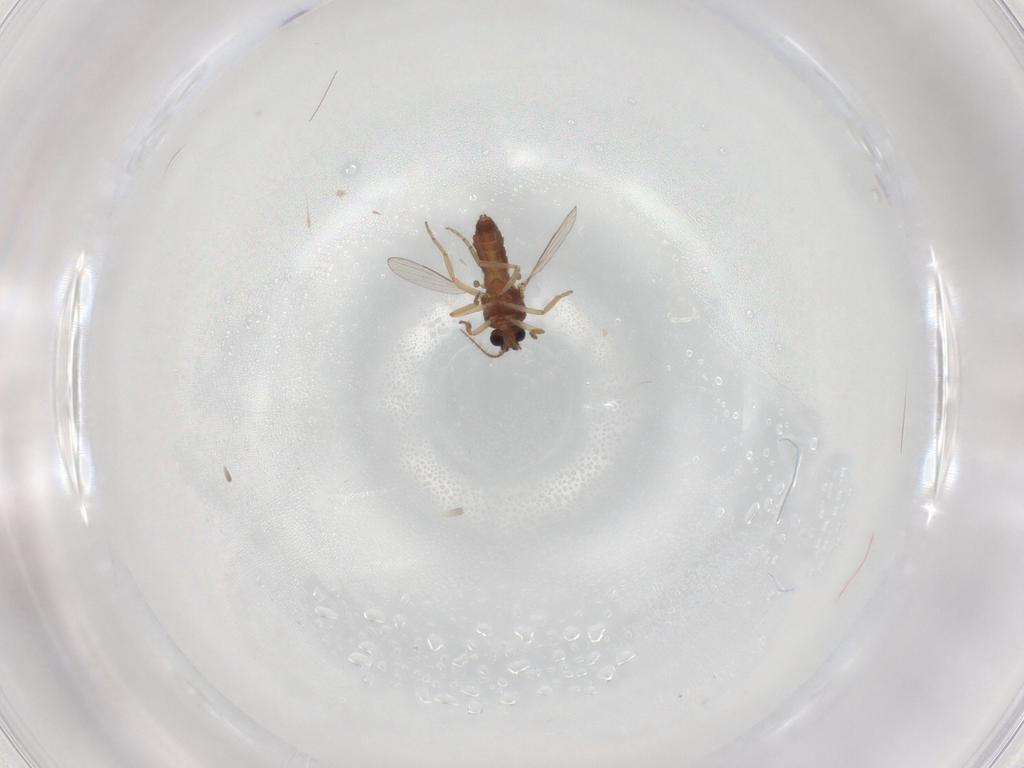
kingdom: Animalia
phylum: Arthropoda
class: Insecta
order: Diptera
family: Ceratopogonidae
